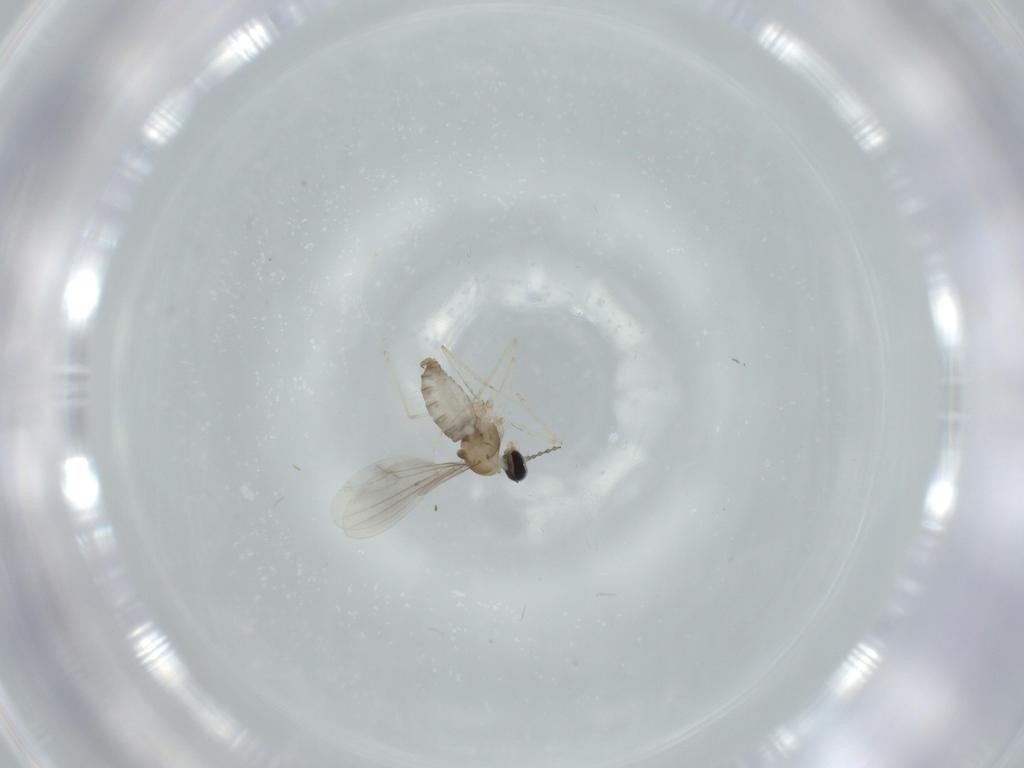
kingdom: Animalia
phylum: Arthropoda
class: Insecta
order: Diptera
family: Cecidomyiidae
